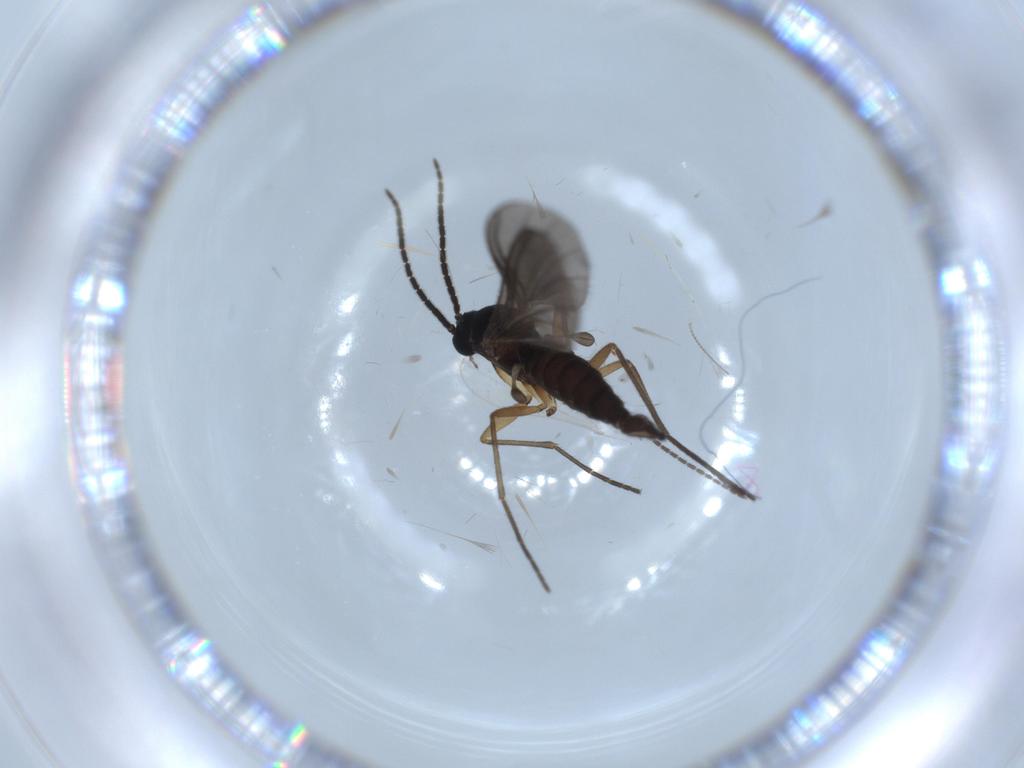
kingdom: Animalia
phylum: Arthropoda
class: Insecta
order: Diptera
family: Sciaridae
